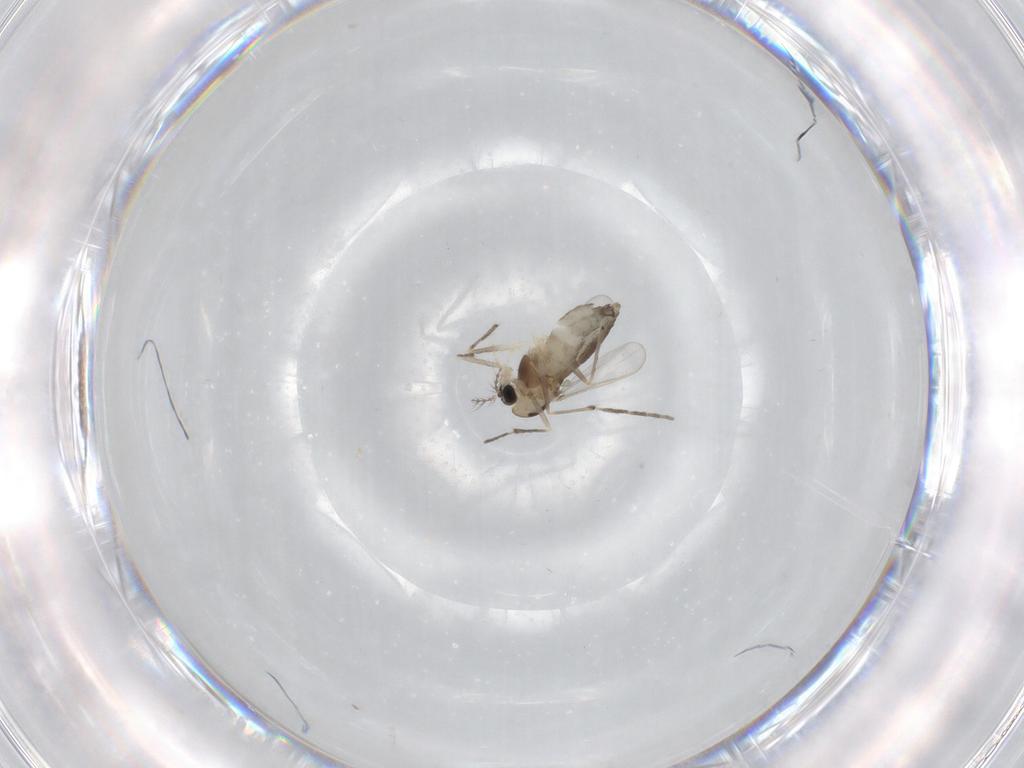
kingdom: Animalia
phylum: Arthropoda
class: Insecta
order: Diptera
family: Chironomidae
